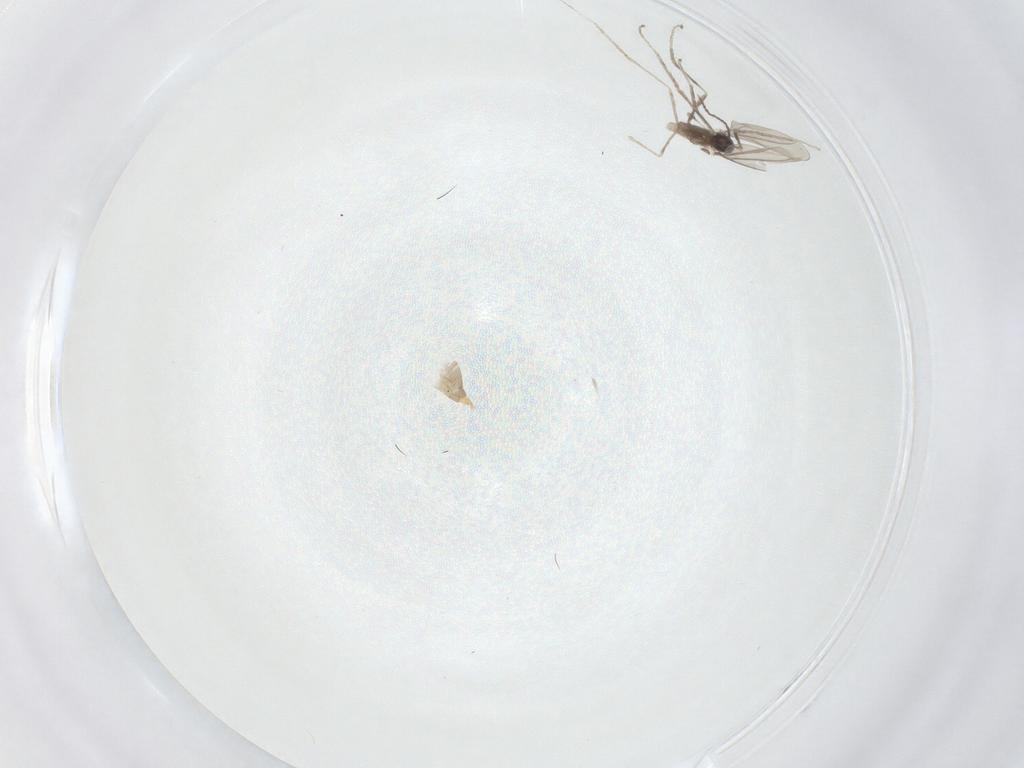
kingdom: Animalia
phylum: Arthropoda
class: Insecta
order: Diptera
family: Cecidomyiidae
